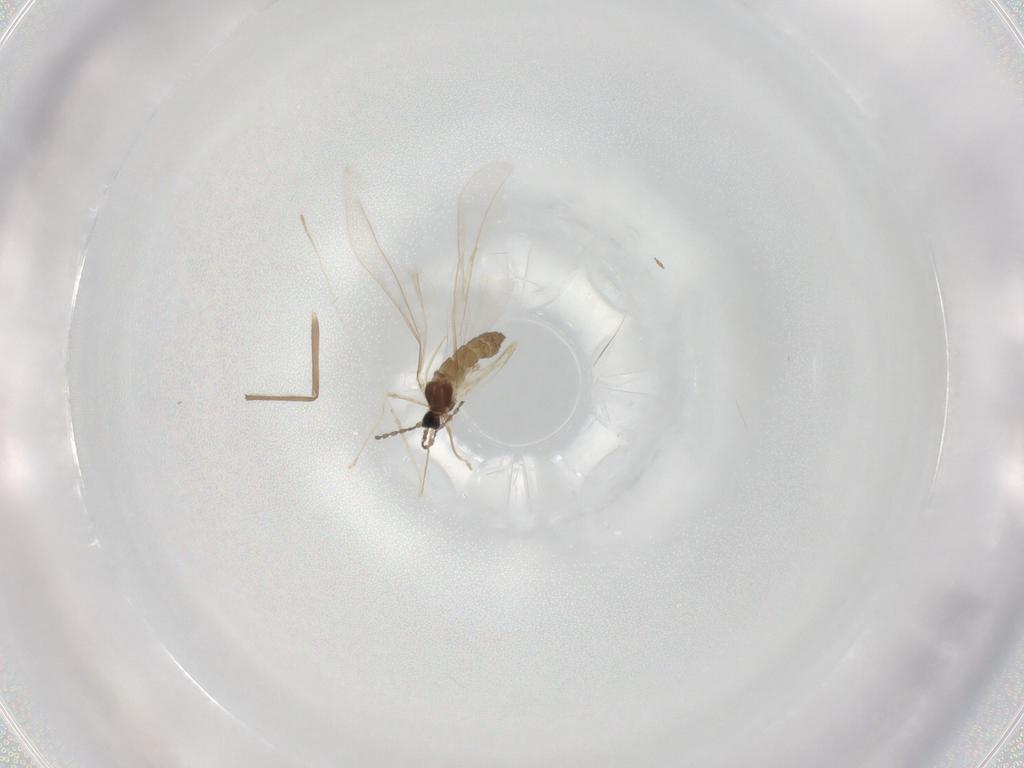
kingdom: Animalia
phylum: Arthropoda
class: Insecta
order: Diptera
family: Cecidomyiidae
